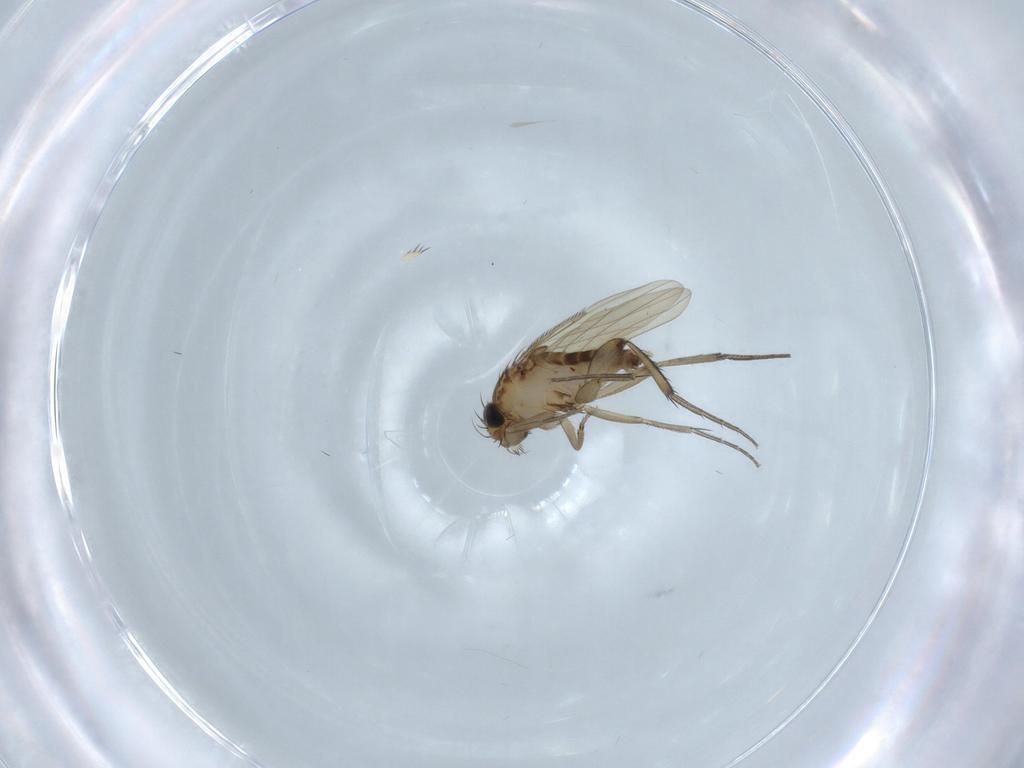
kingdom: Animalia
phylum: Arthropoda
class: Insecta
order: Diptera
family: Phoridae
